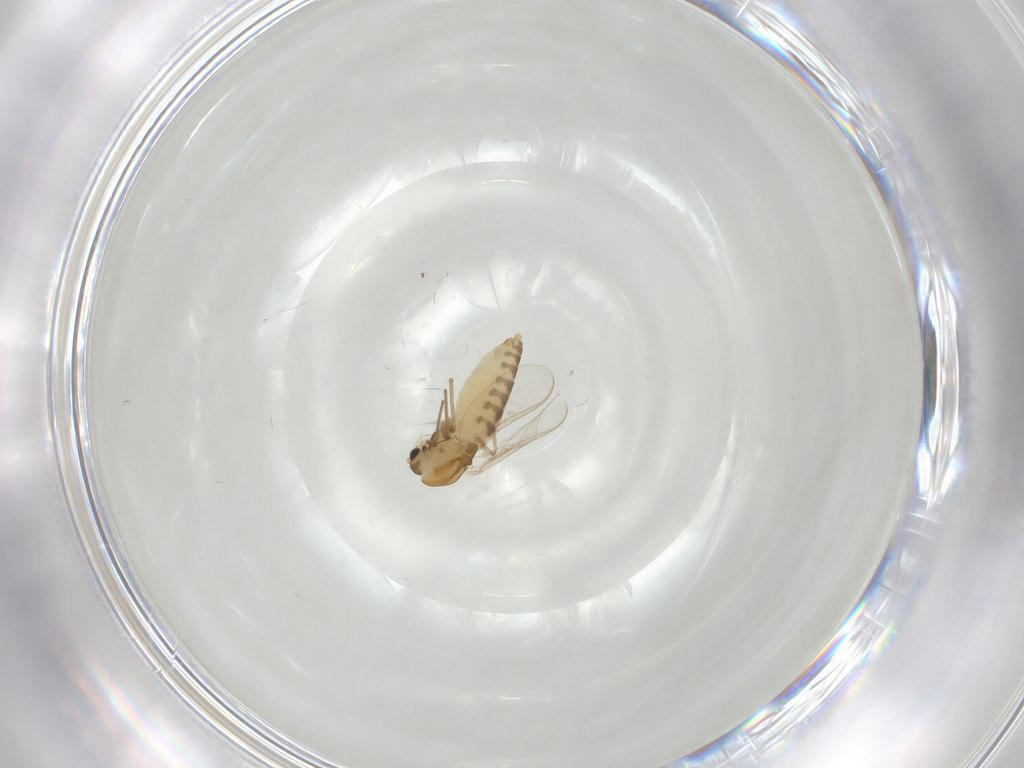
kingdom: Animalia
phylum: Arthropoda
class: Insecta
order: Diptera
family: Chironomidae
